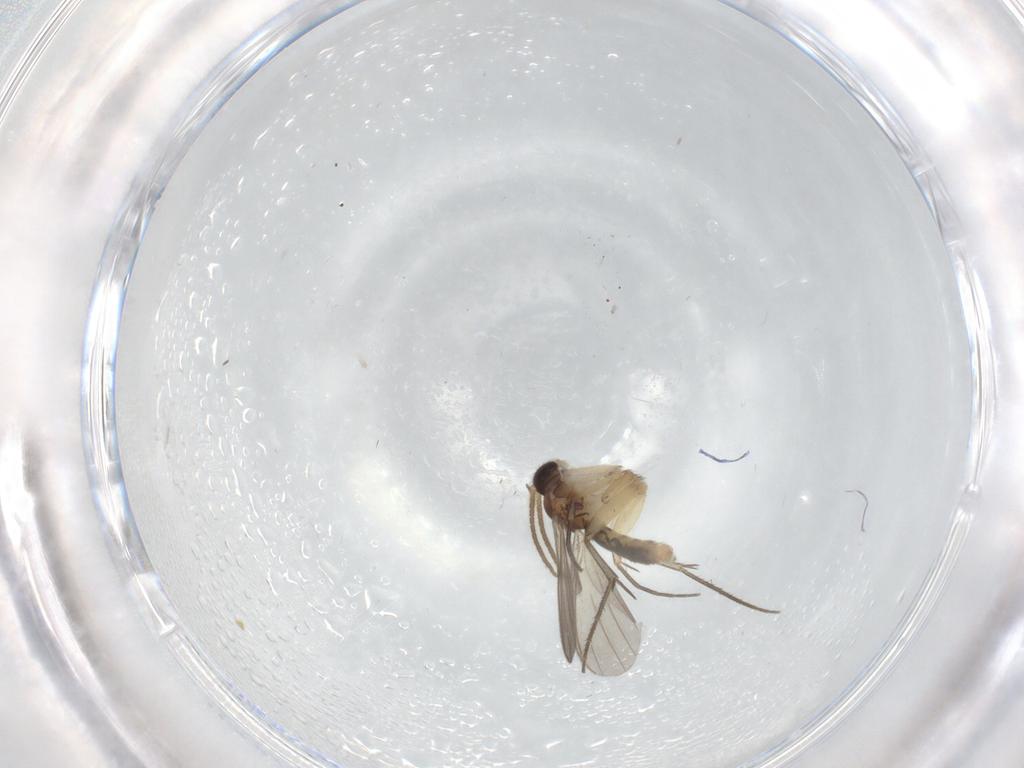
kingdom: Animalia
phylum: Arthropoda
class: Insecta
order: Diptera
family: Mycetophilidae
